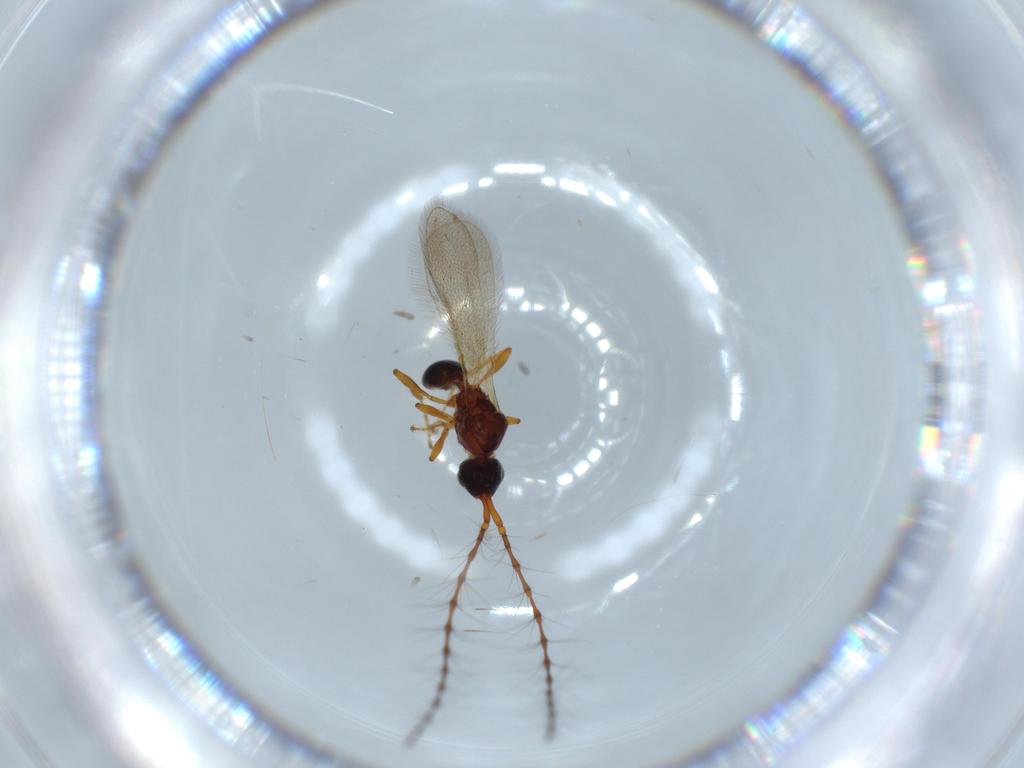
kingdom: Animalia
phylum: Arthropoda
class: Insecta
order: Hymenoptera
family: Diapriidae
